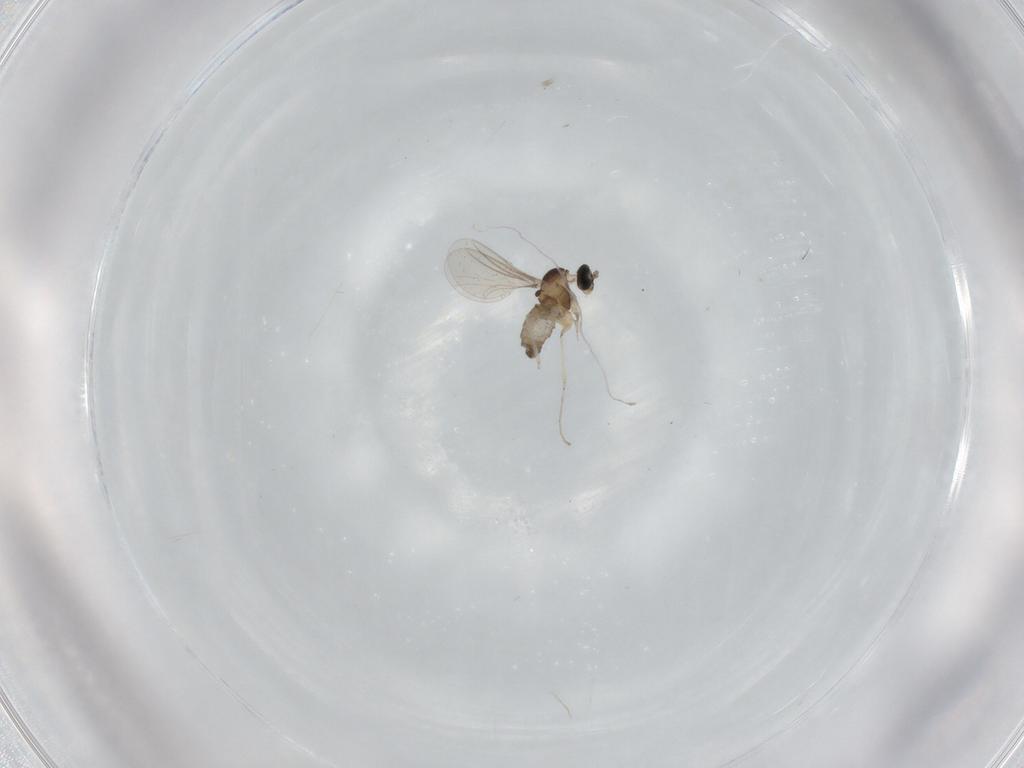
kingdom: Animalia
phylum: Arthropoda
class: Insecta
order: Diptera
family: Cecidomyiidae
